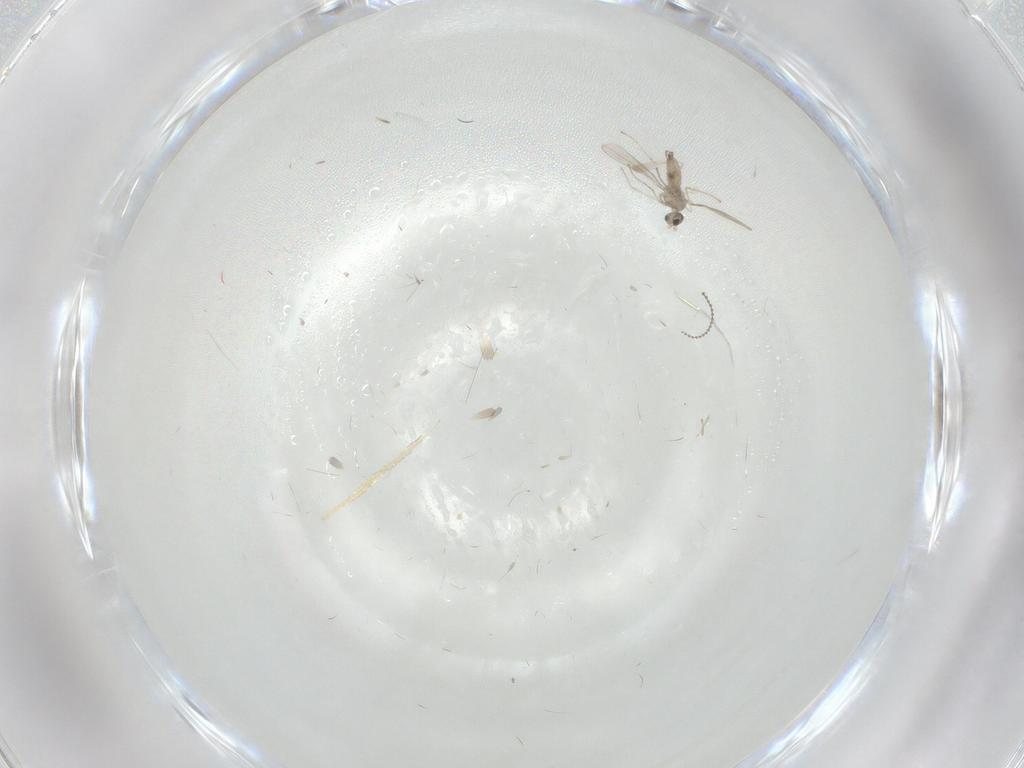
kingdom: Animalia
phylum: Arthropoda
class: Insecta
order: Diptera
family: Cecidomyiidae
